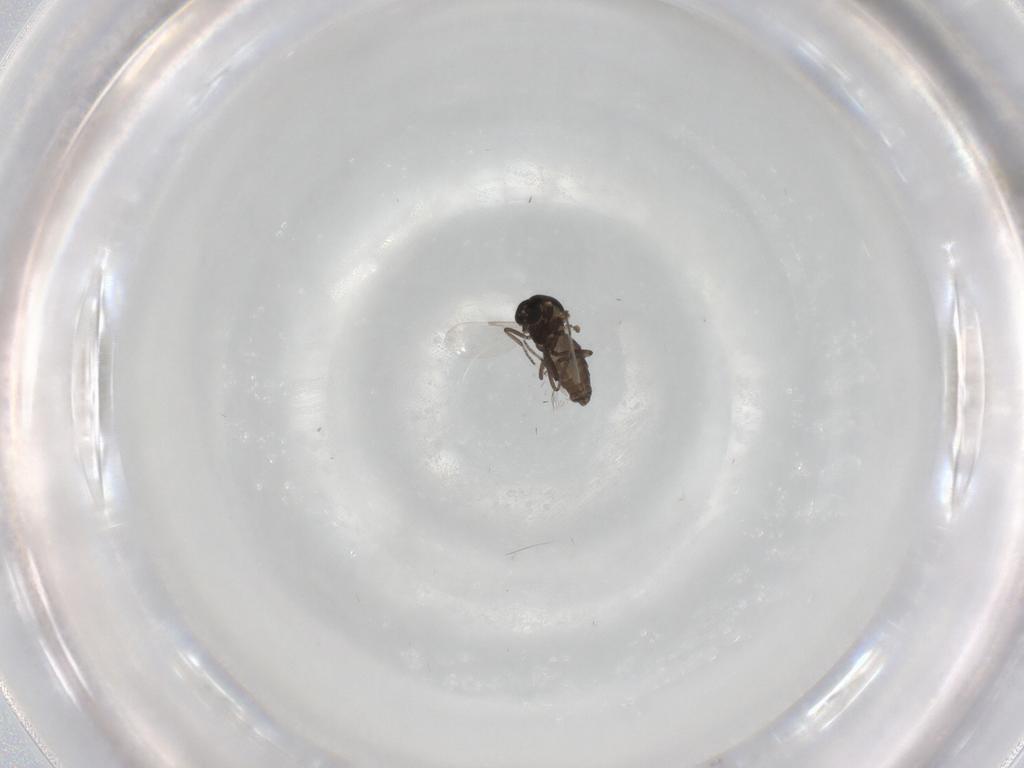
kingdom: Animalia
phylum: Arthropoda
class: Insecta
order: Diptera
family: Ceratopogonidae
